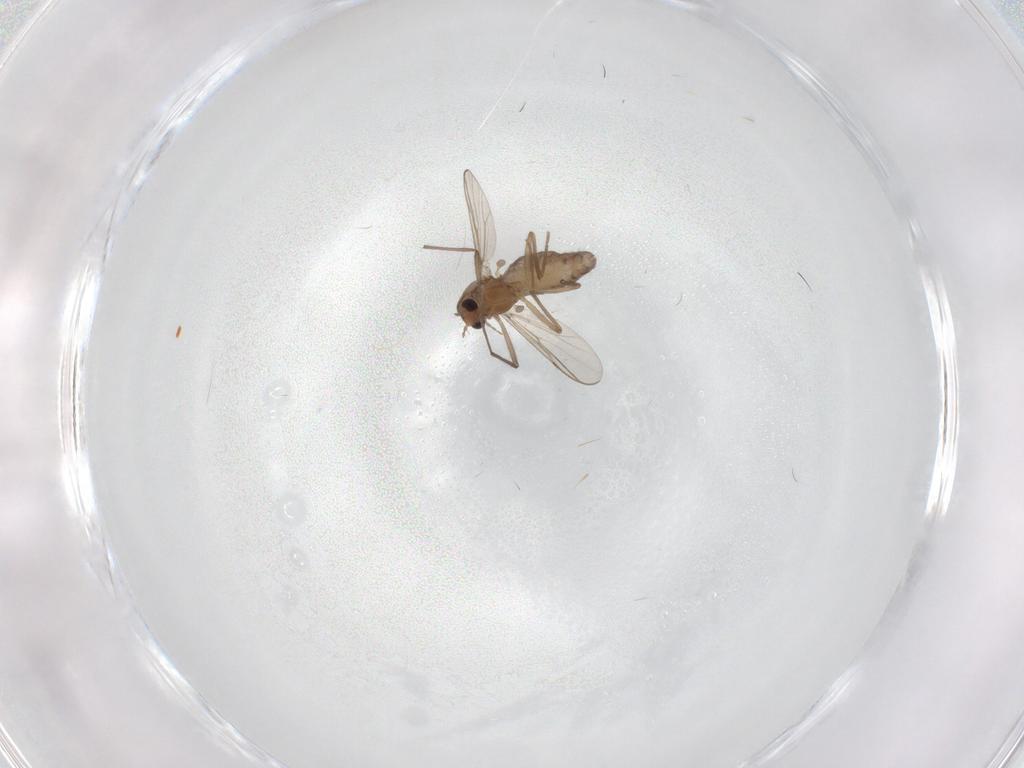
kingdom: Animalia
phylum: Arthropoda
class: Insecta
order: Diptera
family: Chironomidae
